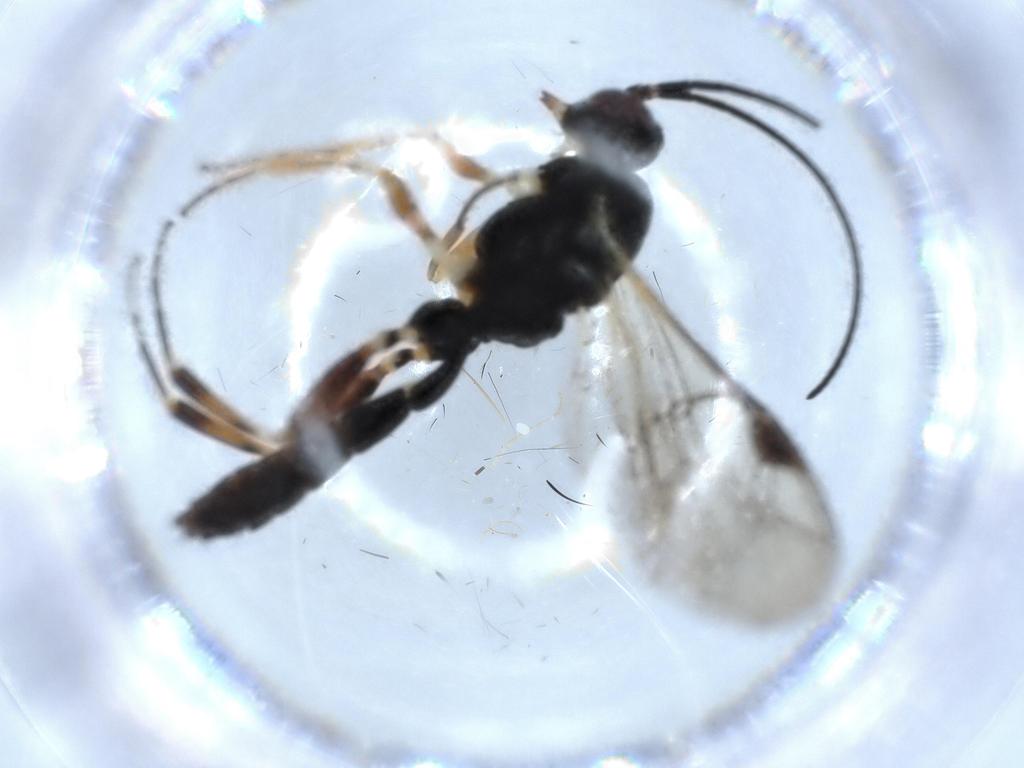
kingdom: Animalia
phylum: Arthropoda
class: Insecta
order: Hymenoptera
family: Ichneumonidae
